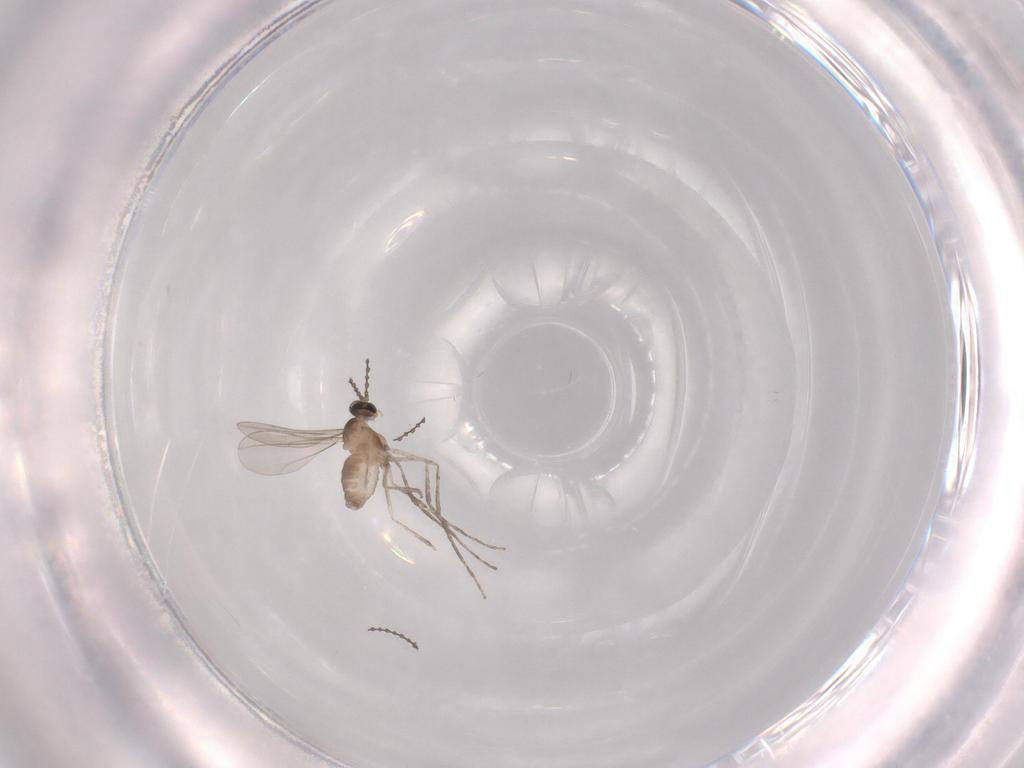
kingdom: Animalia
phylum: Arthropoda
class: Insecta
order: Diptera
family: Cecidomyiidae
